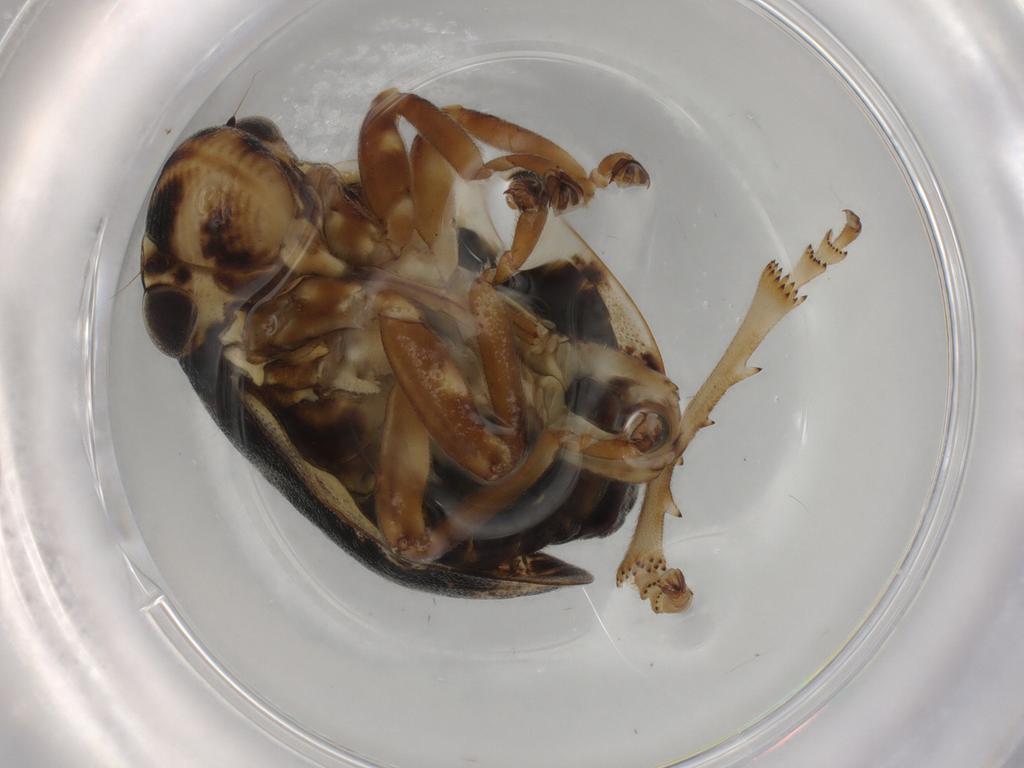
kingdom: Animalia
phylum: Arthropoda
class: Insecta
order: Hemiptera
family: Aphrophoridae
